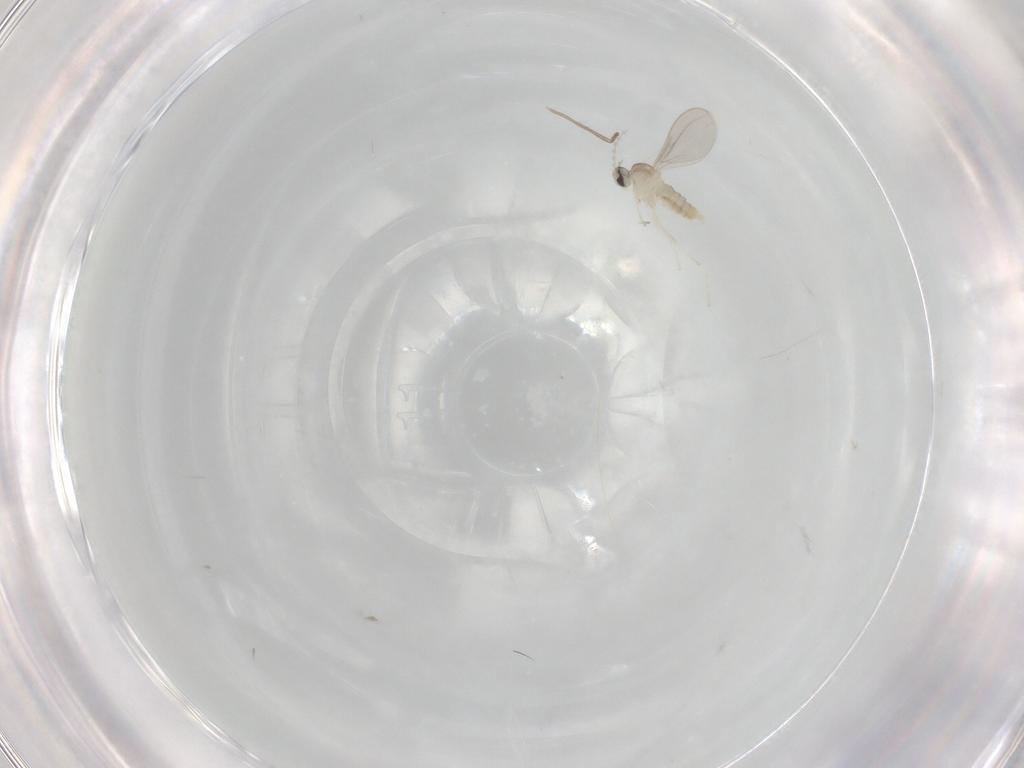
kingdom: Animalia
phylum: Arthropoda
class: Insecta
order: Diptera
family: Cecidomyiidae
